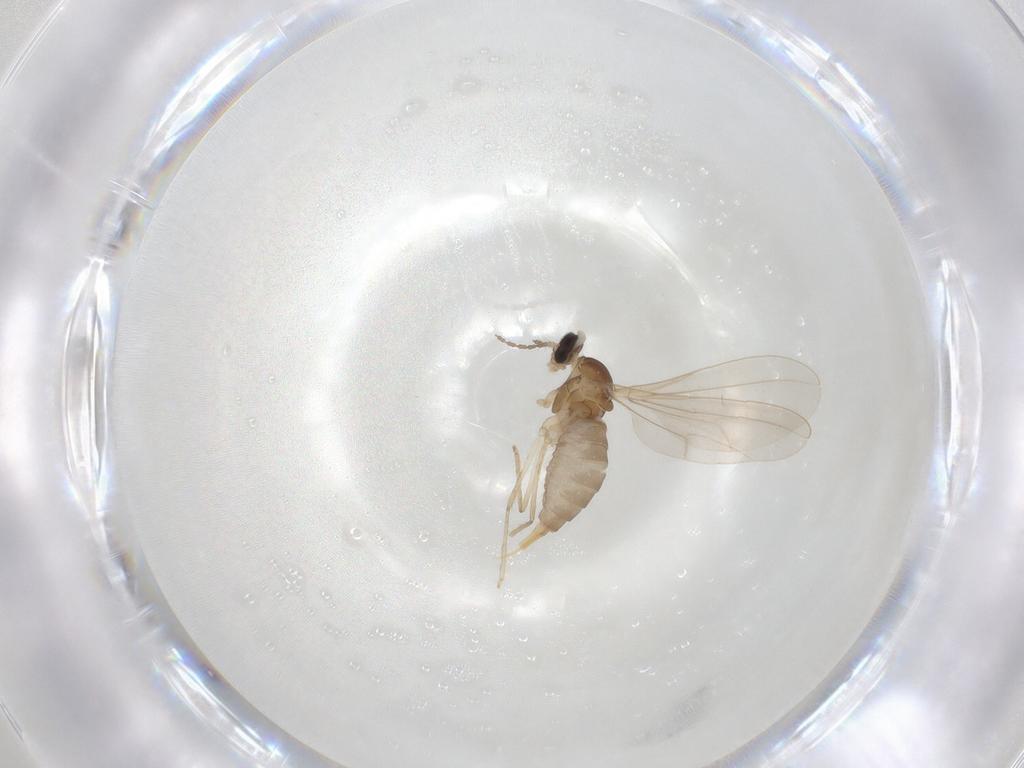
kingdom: Animalia
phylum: Arthropoda
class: Insecta
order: Diptera
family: Cecidomyiidae
